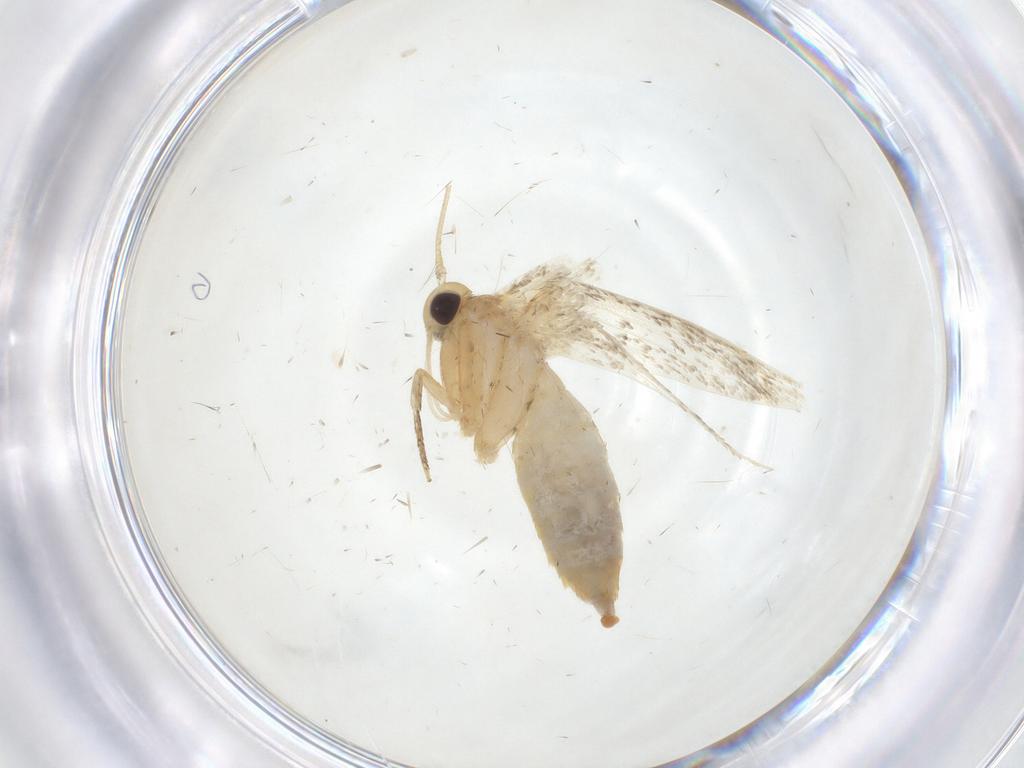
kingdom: Animalia
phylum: Arthropoda
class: Insecta
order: Lepidoptera
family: Oecophoridae
